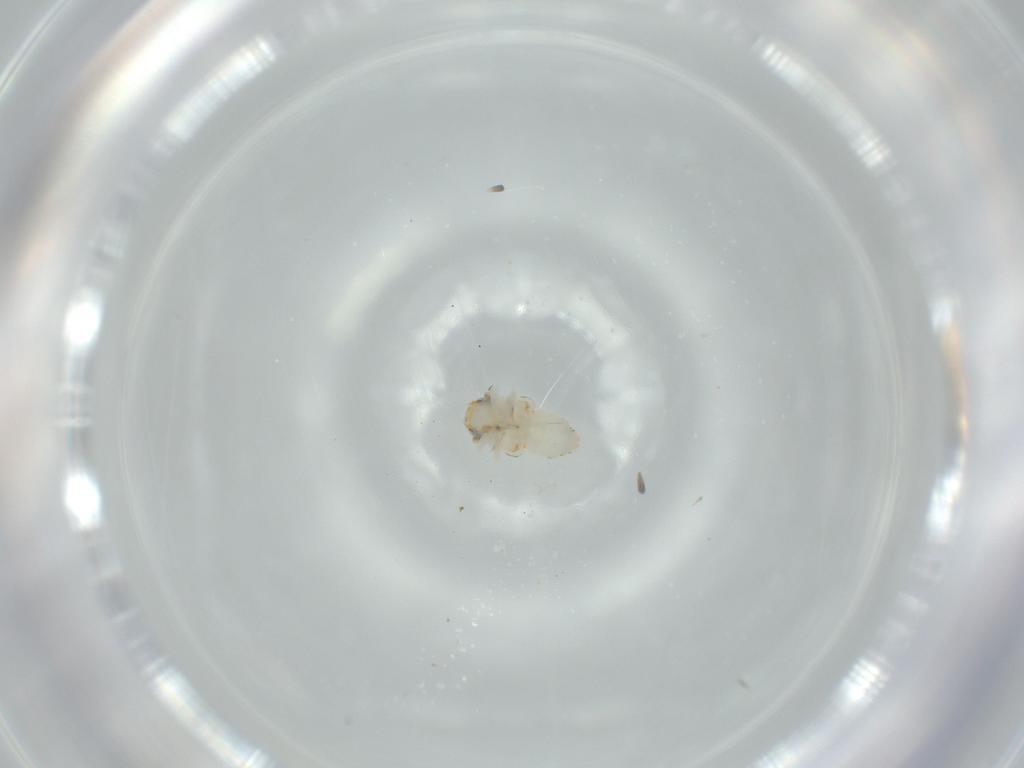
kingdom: Animalia
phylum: Arthropoda
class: Insecta
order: Hemiptera
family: Nogodinidae
